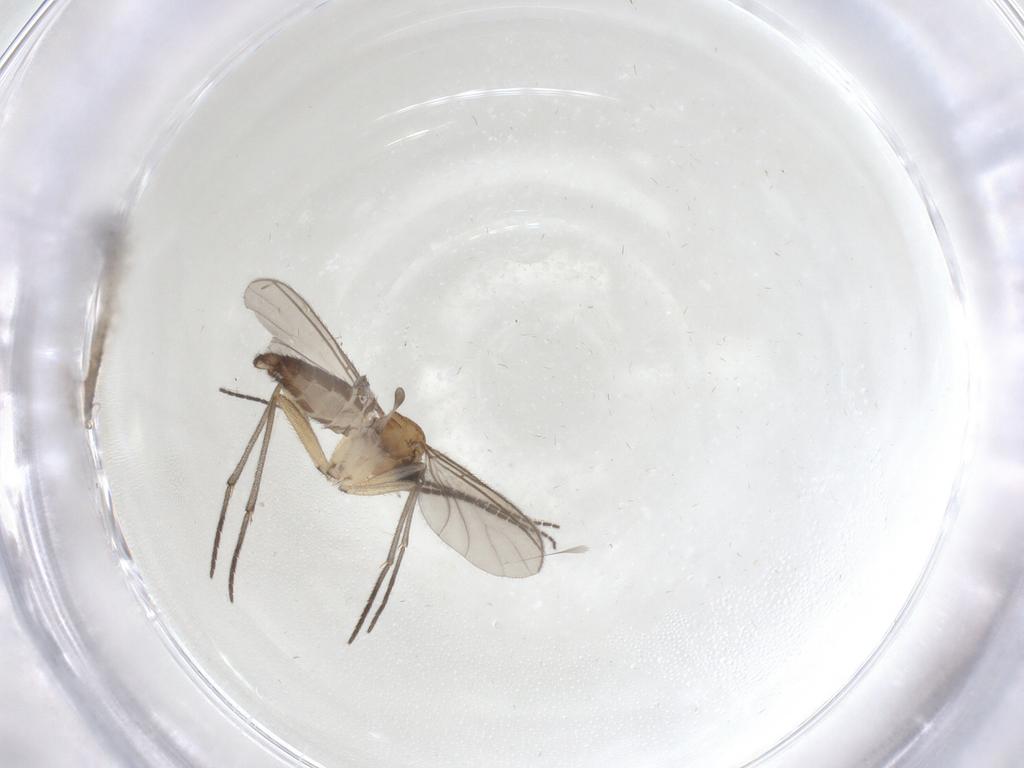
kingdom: Animalia
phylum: Arthropoda
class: Insecta
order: Diptera
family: Sciaridae
